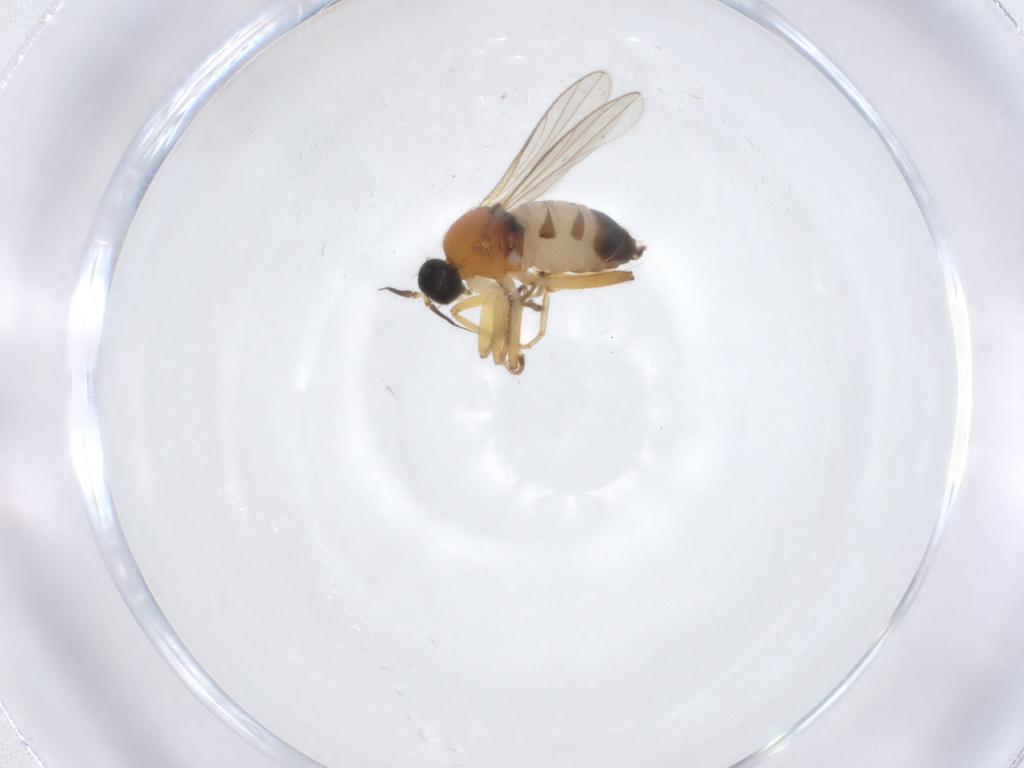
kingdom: Animalia
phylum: Arthropoda
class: Insecta
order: Diptera
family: Hybotidae
